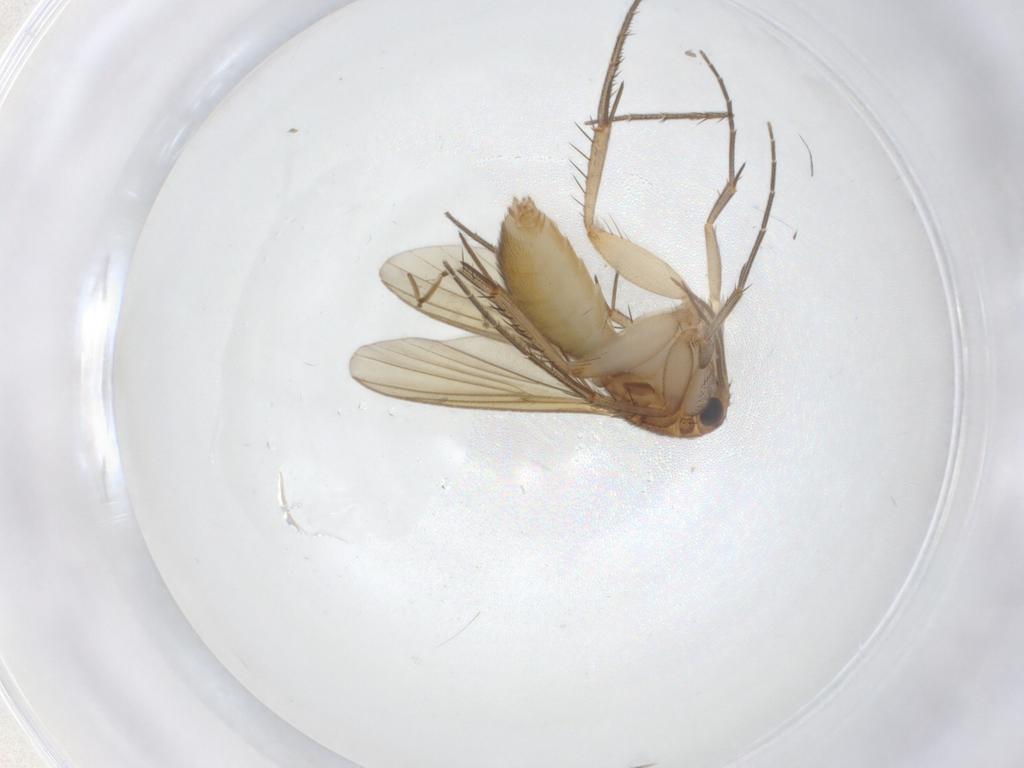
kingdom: Animalia
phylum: Arthropoda
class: Insecta
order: Diptera
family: Mycetophilidae
